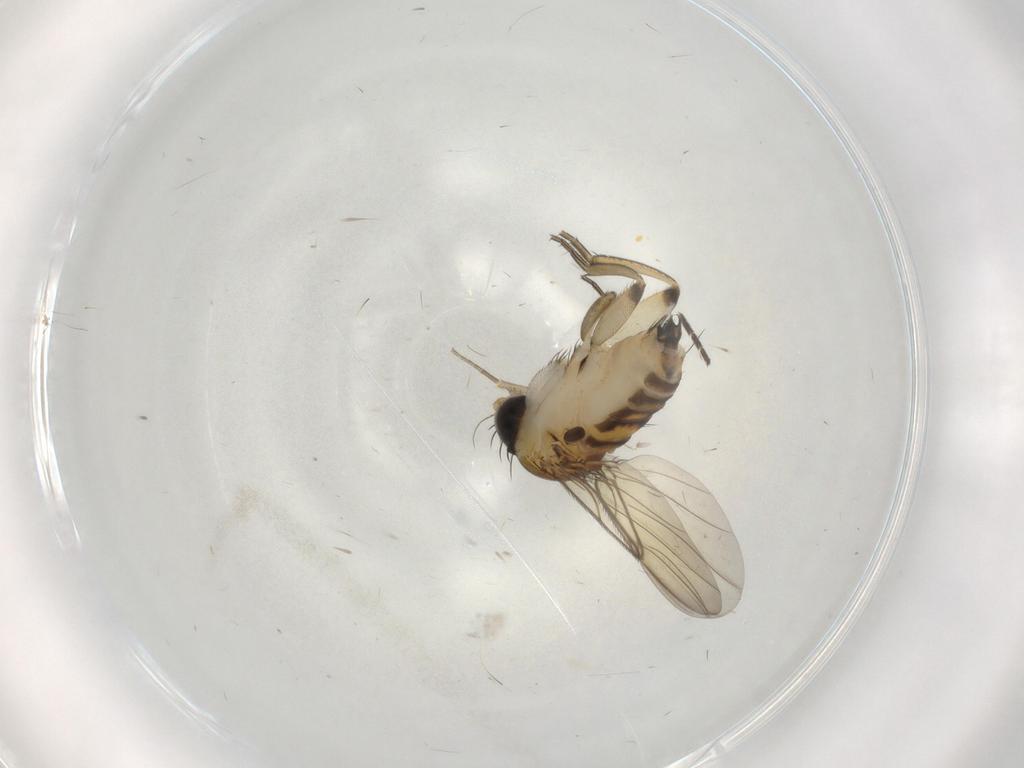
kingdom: Animalia
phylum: Arthropoda
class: Insecta
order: Diptera
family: Phoridae
